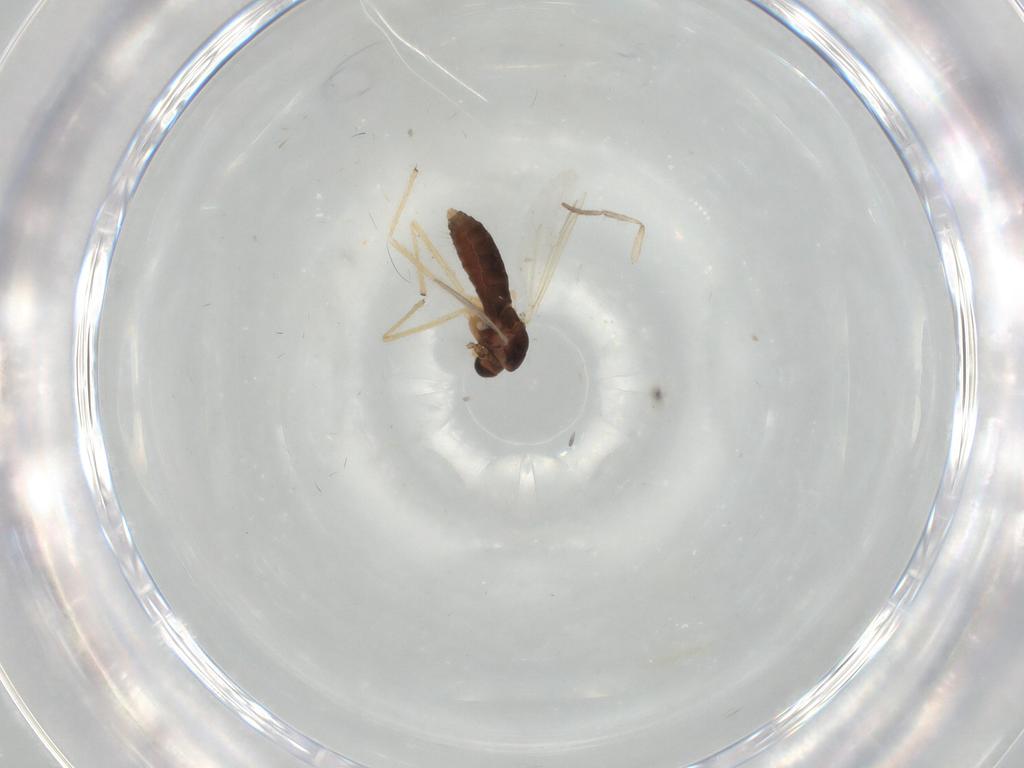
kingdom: Animalia
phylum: Arthropoda
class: Insecta
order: Diptera
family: Chironomidae
